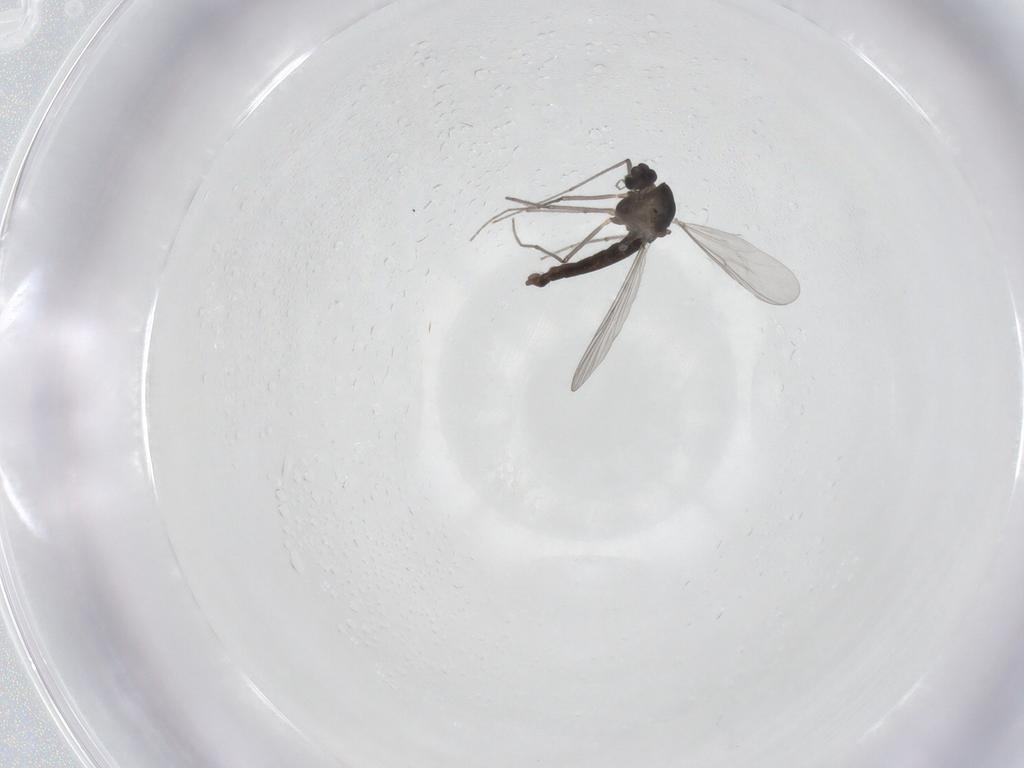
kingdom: Animalia
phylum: Arthropoda
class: Insecta
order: Diptera
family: Chironomidae
